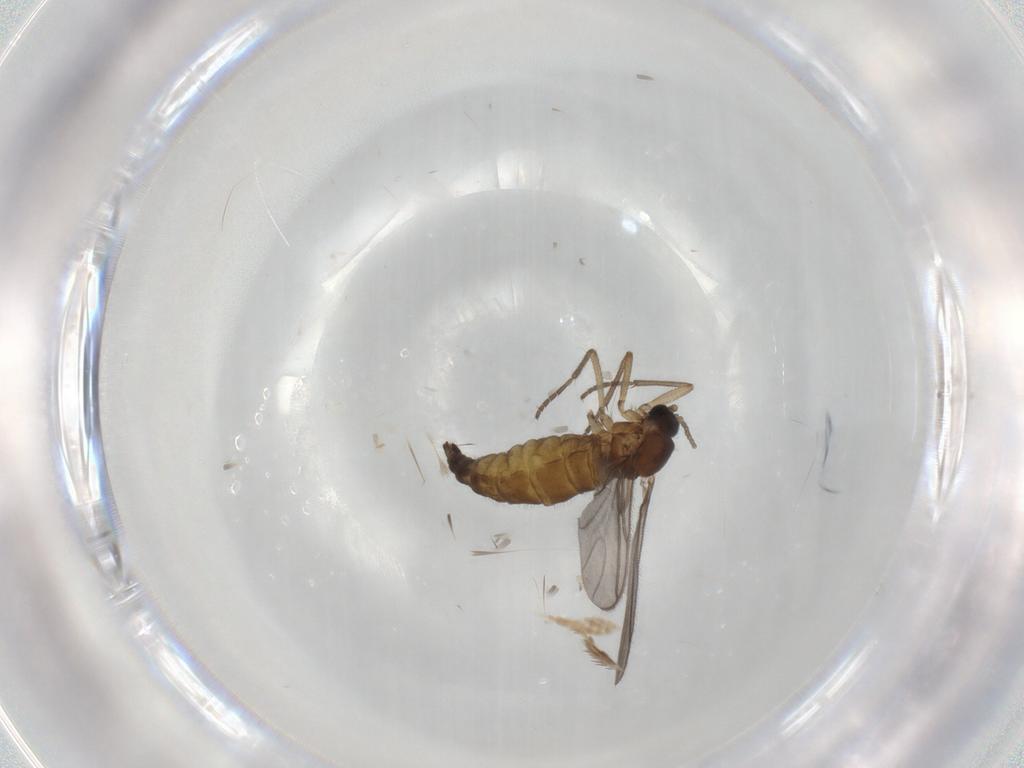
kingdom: Animalia
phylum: Arthropoda
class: Insecta
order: Diptera
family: Sciaridae
